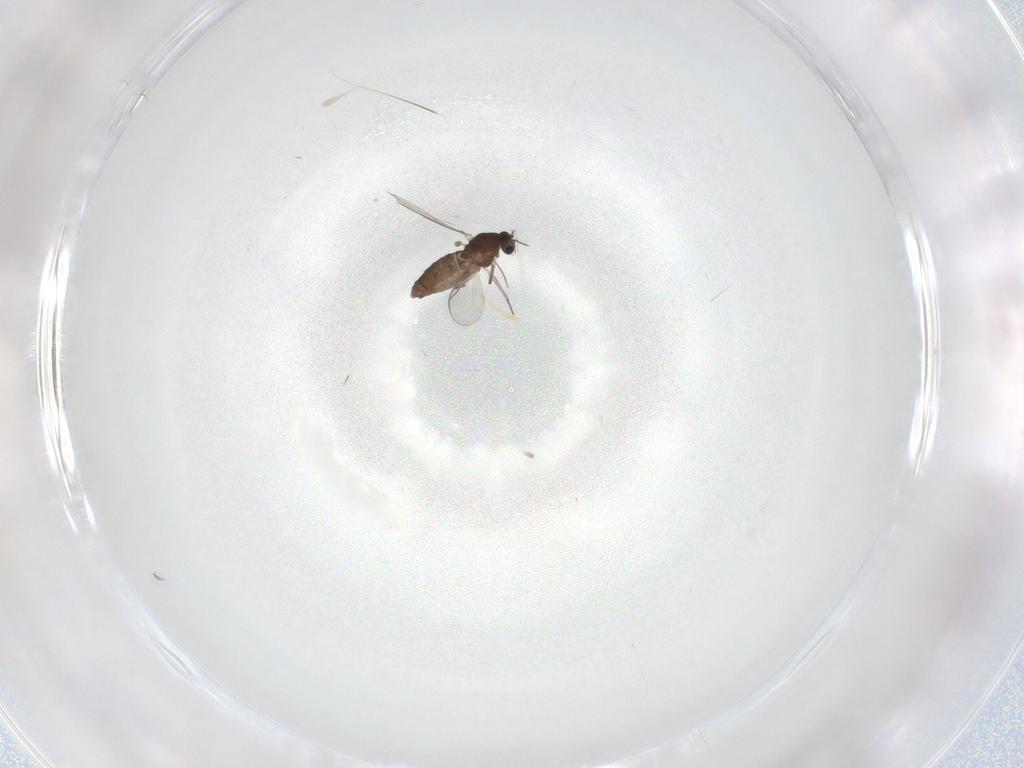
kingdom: Animalia
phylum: Arthropoda
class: Insecta
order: Diptera
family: Chironomidae
